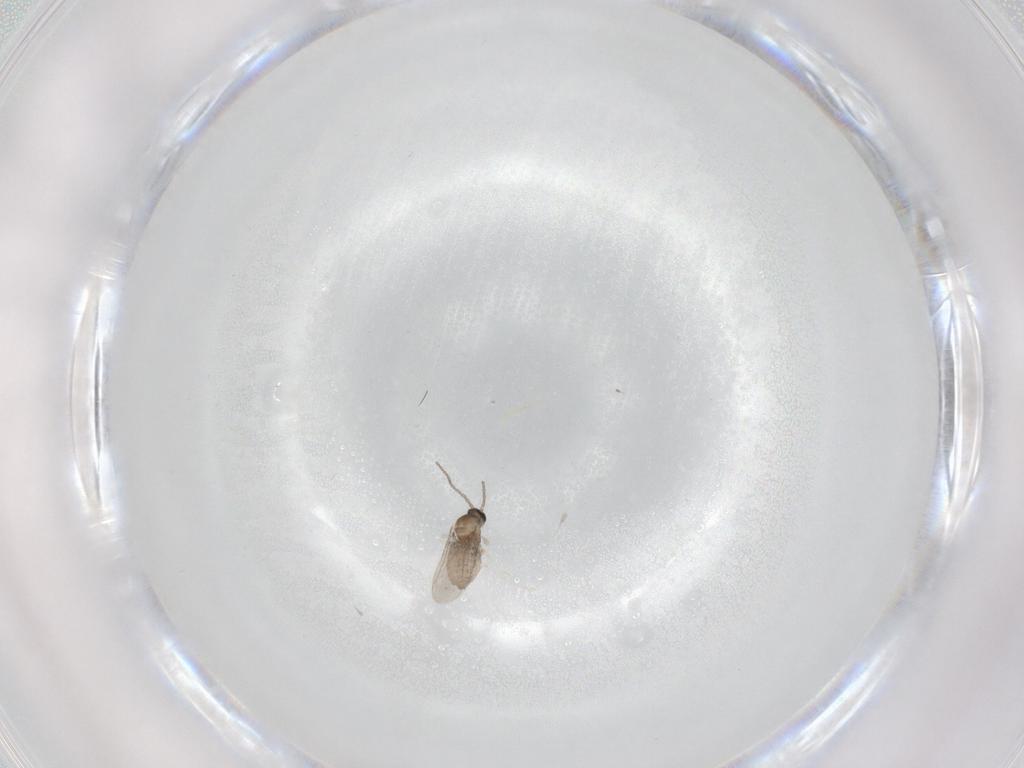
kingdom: Animalia
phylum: Arthropoda
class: Insecta
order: Diptera
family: Cecidomyiidae
